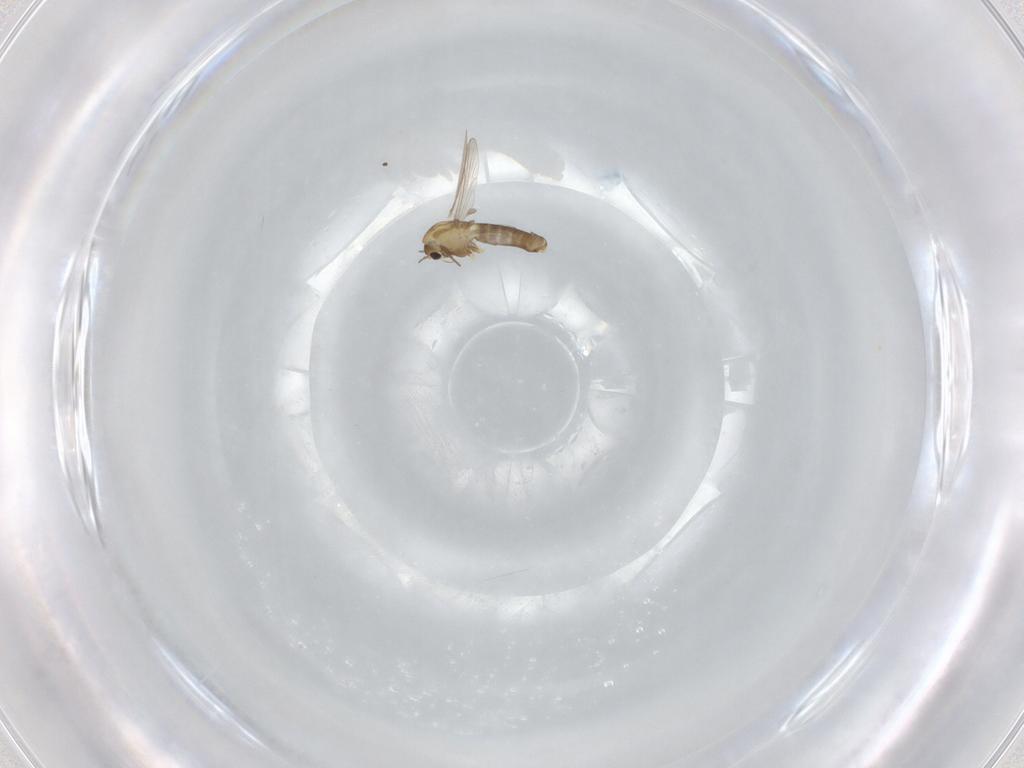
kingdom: Animalia
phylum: Arthropoda
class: Insecta
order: Diptera
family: Chironomidae
